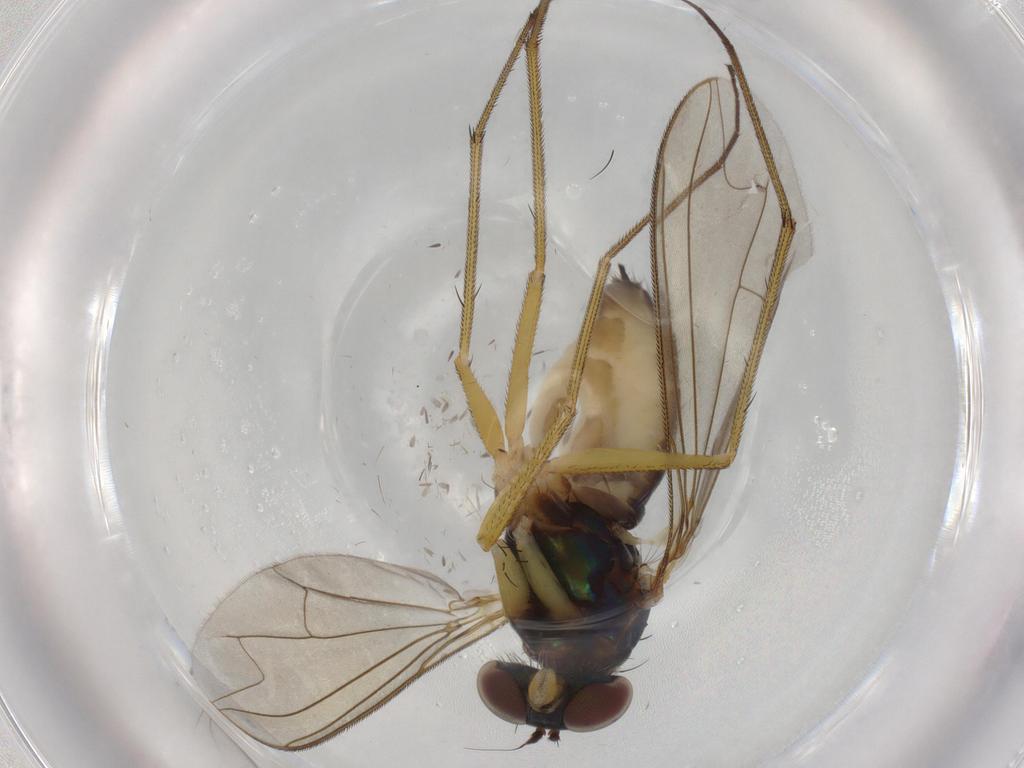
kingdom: Animalia
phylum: Arthropoda
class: Insecta
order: Diptera
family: Dolichopodidae
